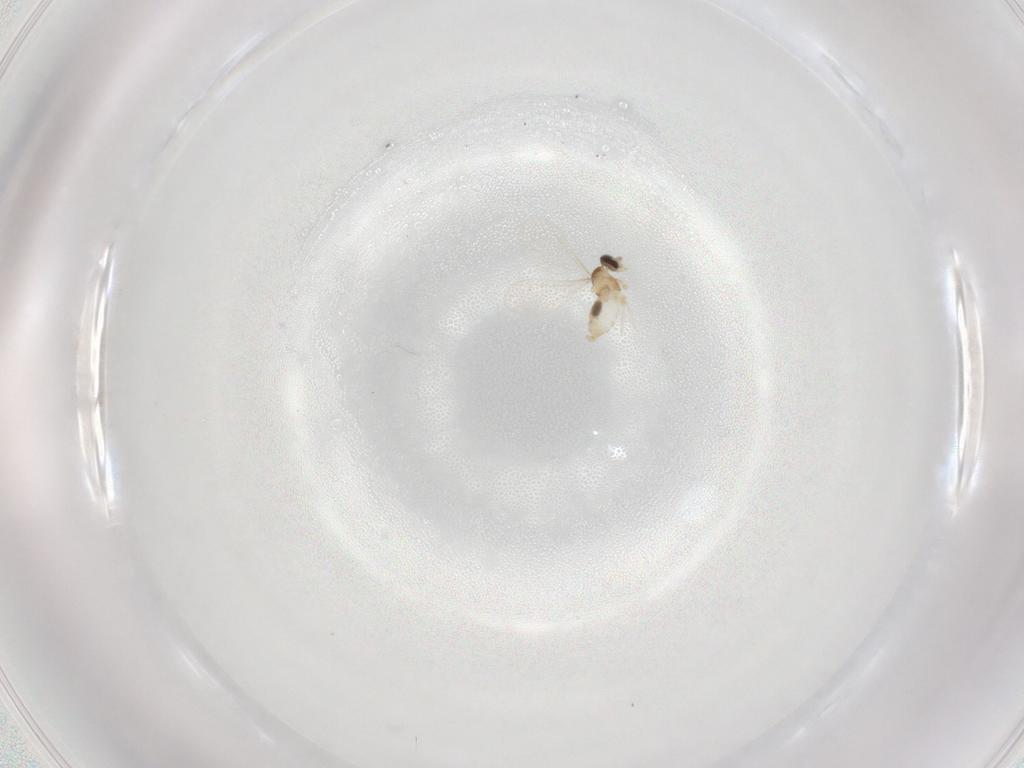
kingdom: Animalia
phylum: Arthropoda
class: Insecta
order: Diptera
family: Cecidomyiidae
